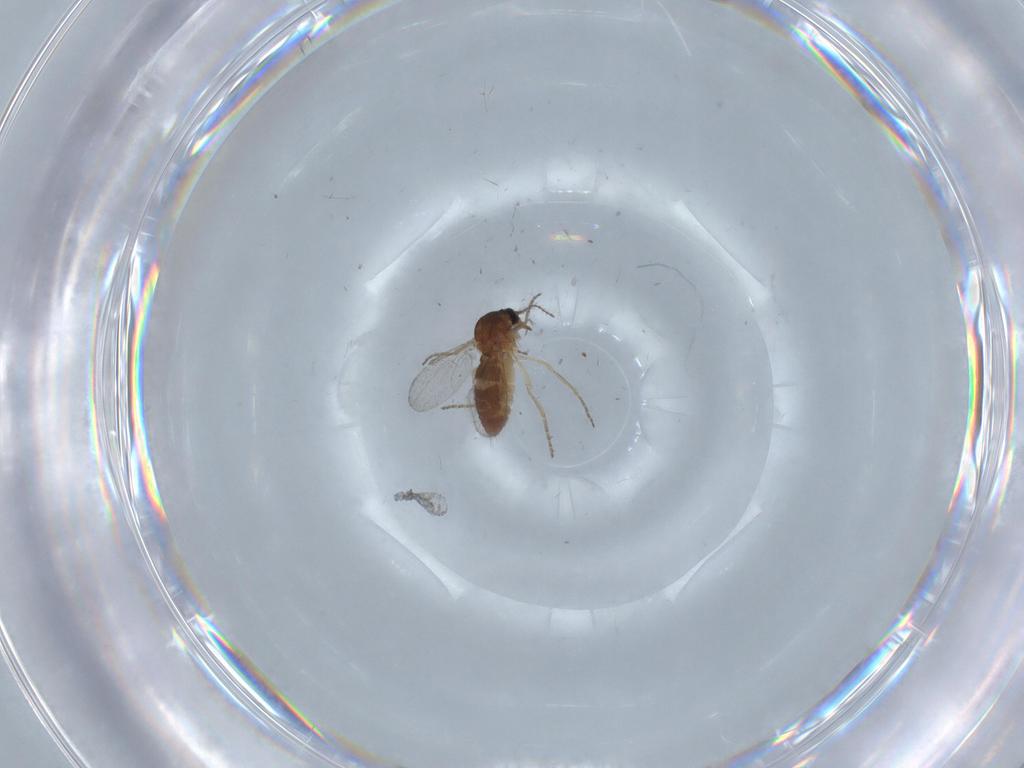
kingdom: Animalia
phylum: Arthropoda
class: Insecta
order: Diptera
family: Ceratopogonidae
